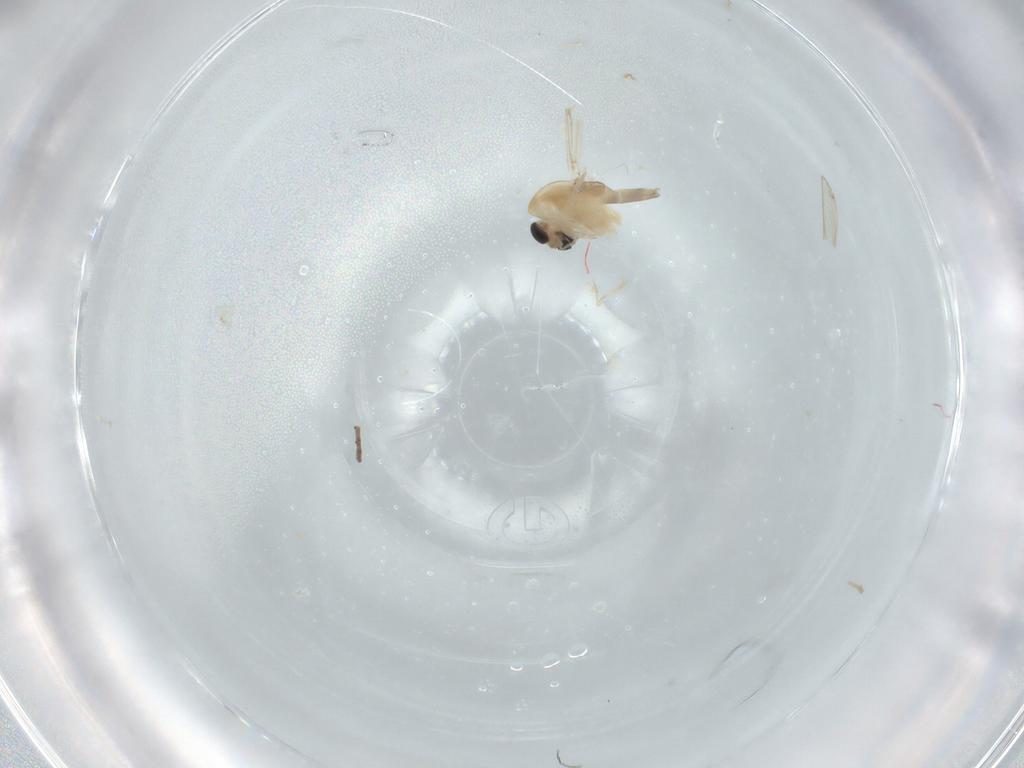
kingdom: Animalia
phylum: Arthropoda
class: Insecta
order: Diptera
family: Chironomidae
